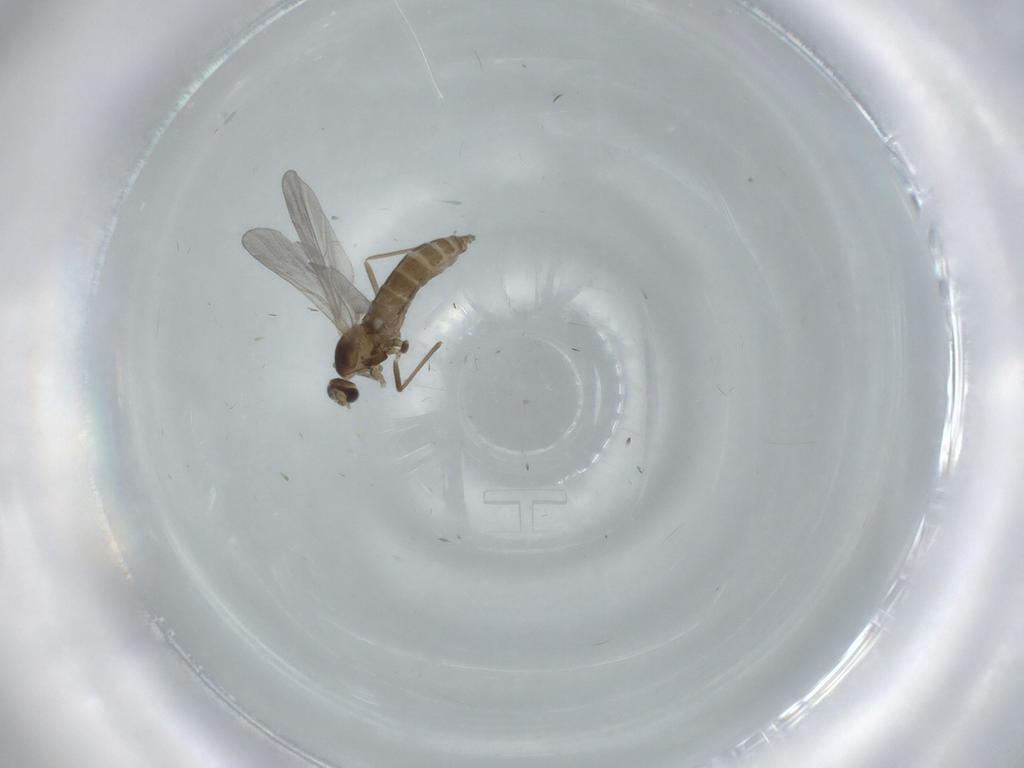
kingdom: Animalia
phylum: Arthropoda
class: Insecta
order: Diptera
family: Cecidomyiidae
